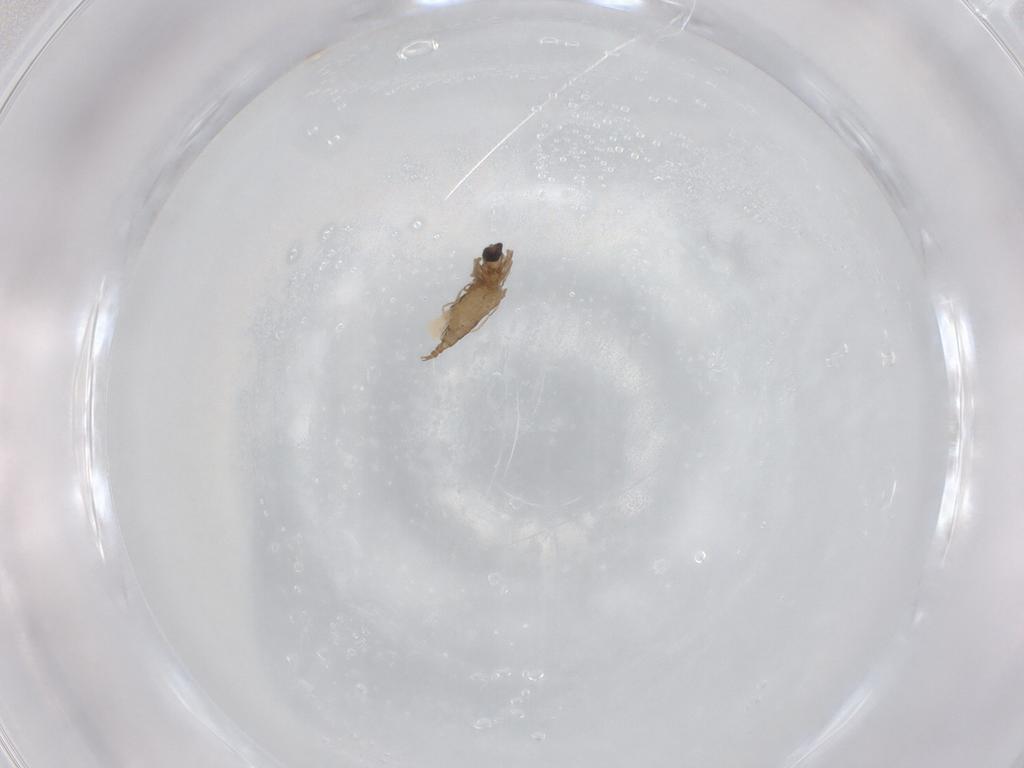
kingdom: Animalia
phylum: Arthropoda
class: Insecta
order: Diptera
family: Cecidomyiidae
